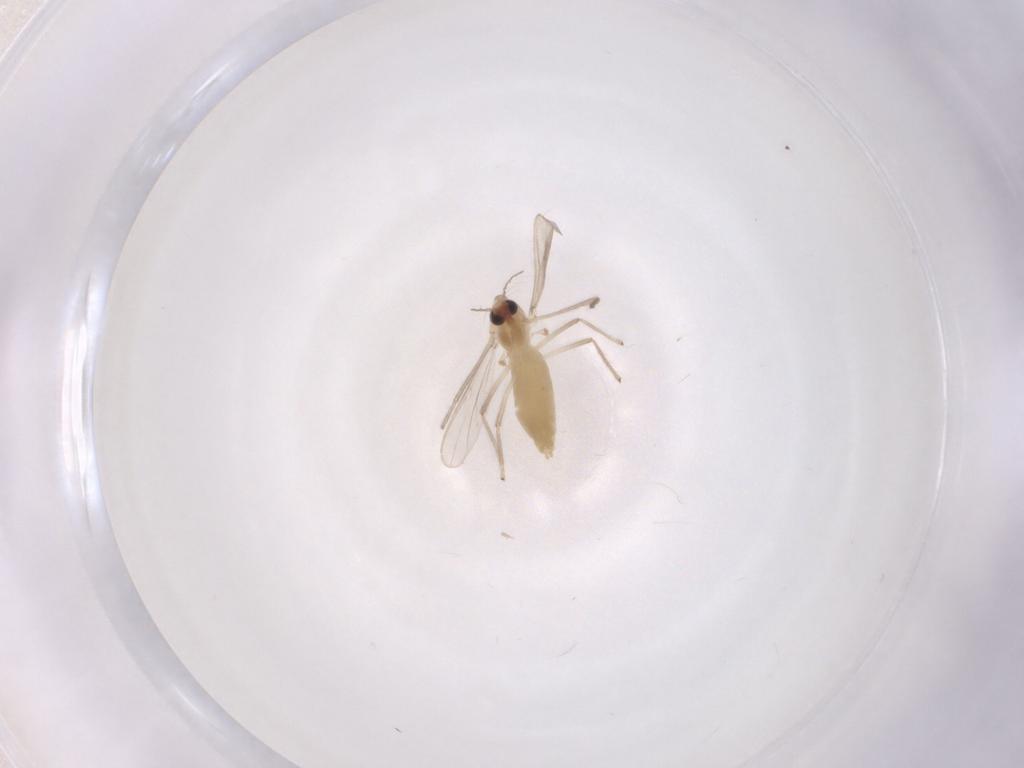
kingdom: Animalia
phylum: Arthropoda
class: Insecta
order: Diptera
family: Chironomidae
